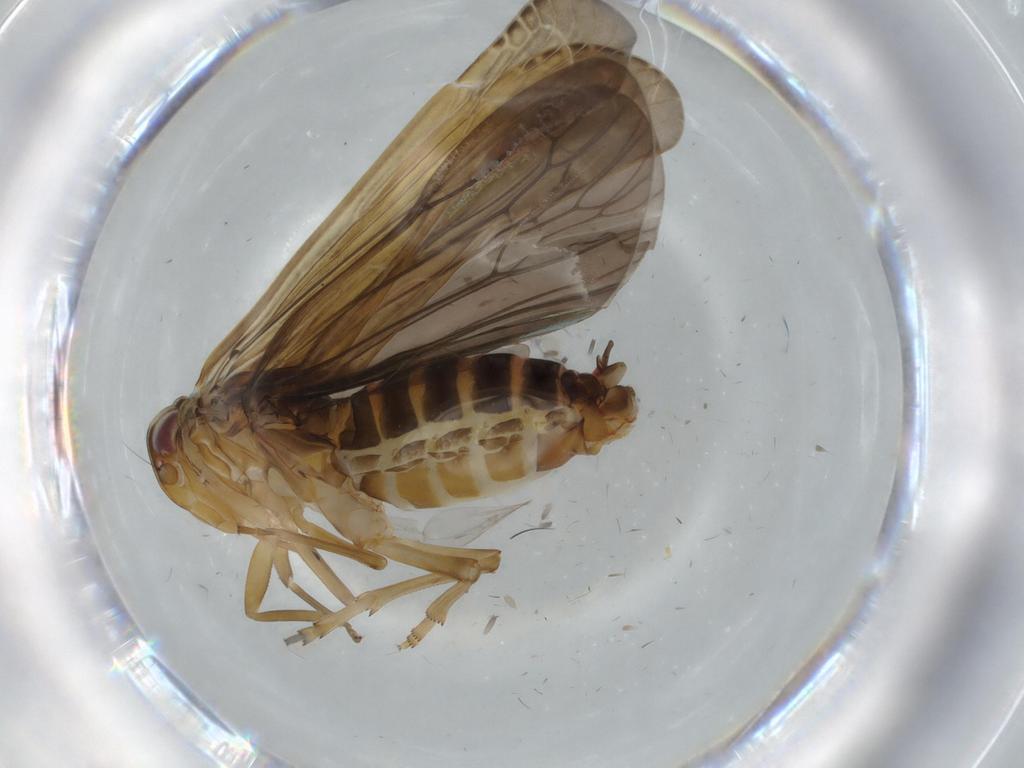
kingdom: Animalia
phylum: Arthropoda
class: Insecta
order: Hemiptera
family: Achilidae
